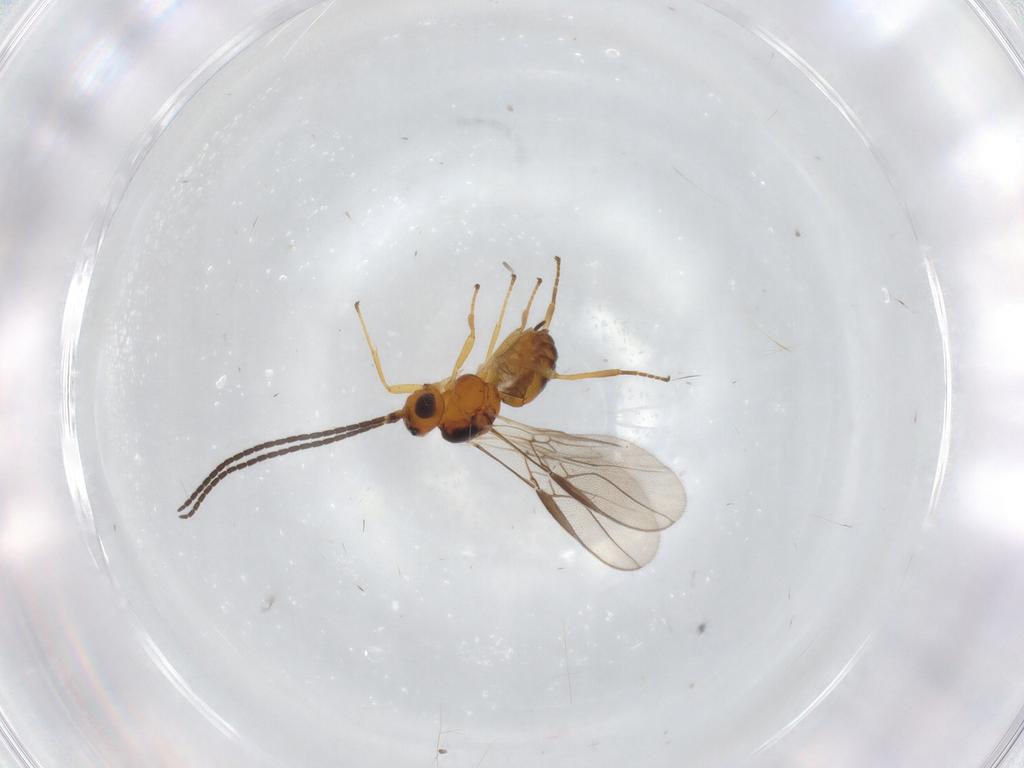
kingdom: Animalia
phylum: Arthropoda
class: Insecta
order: Hymenoptera
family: Braconidae
